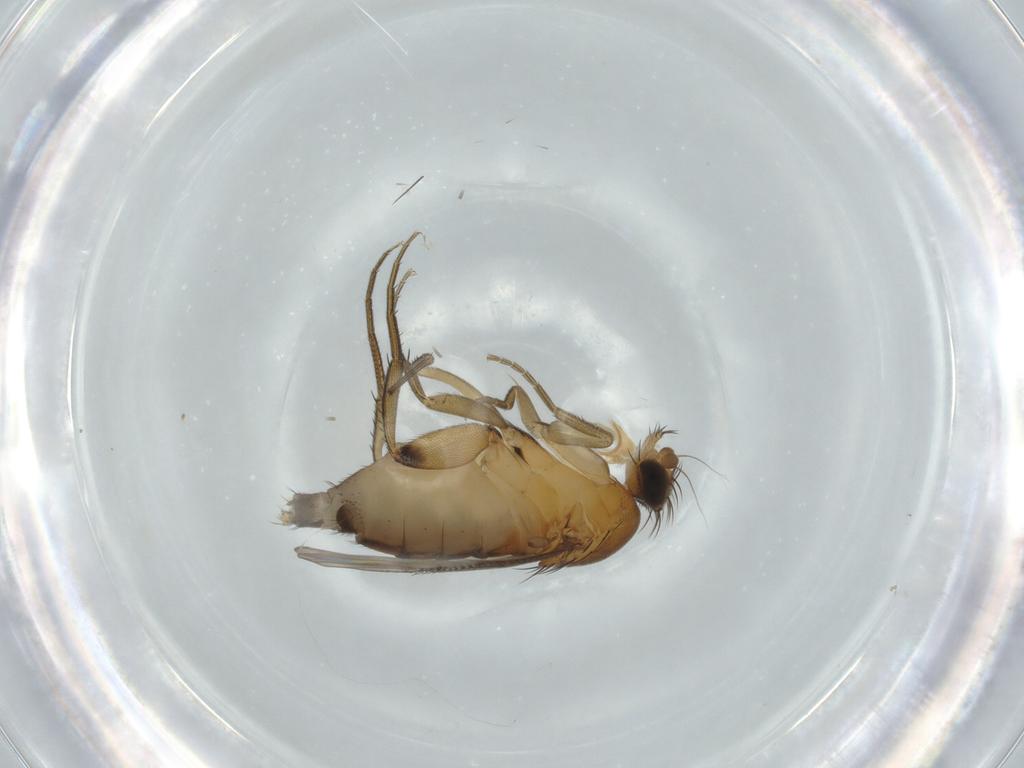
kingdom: Animalia
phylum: Arthropoda
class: Insecta
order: Diptera
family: Phoridae
